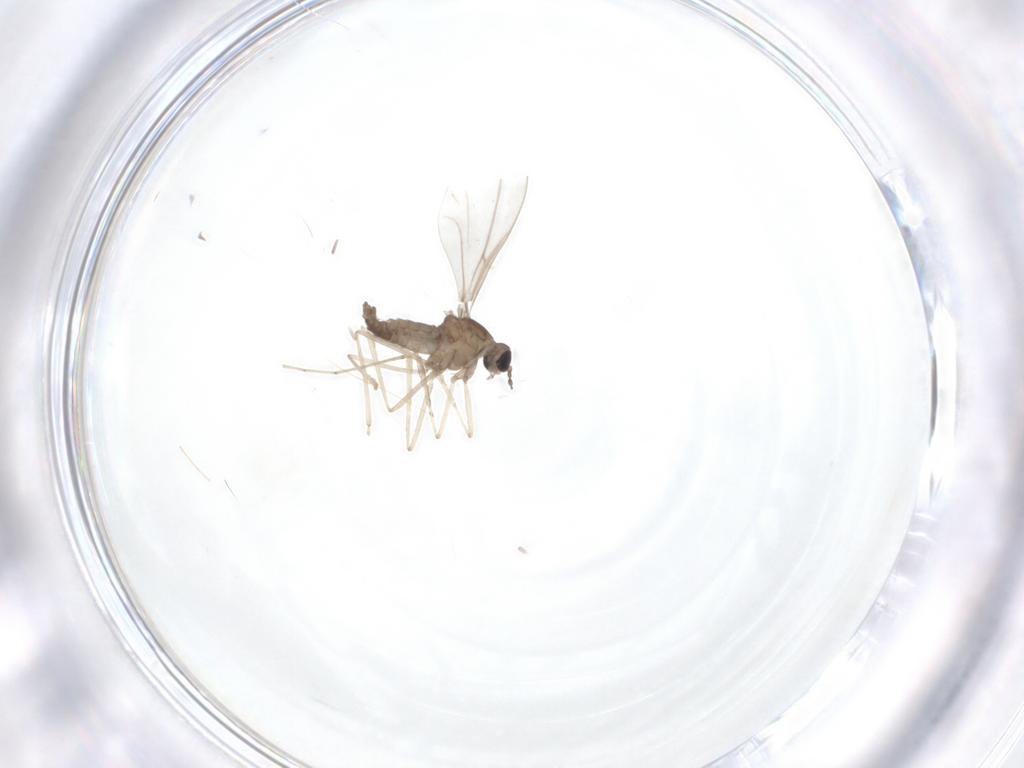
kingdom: Animalia
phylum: Arthropoda
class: Insecta
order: Diptera
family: Cecidomyiidae
